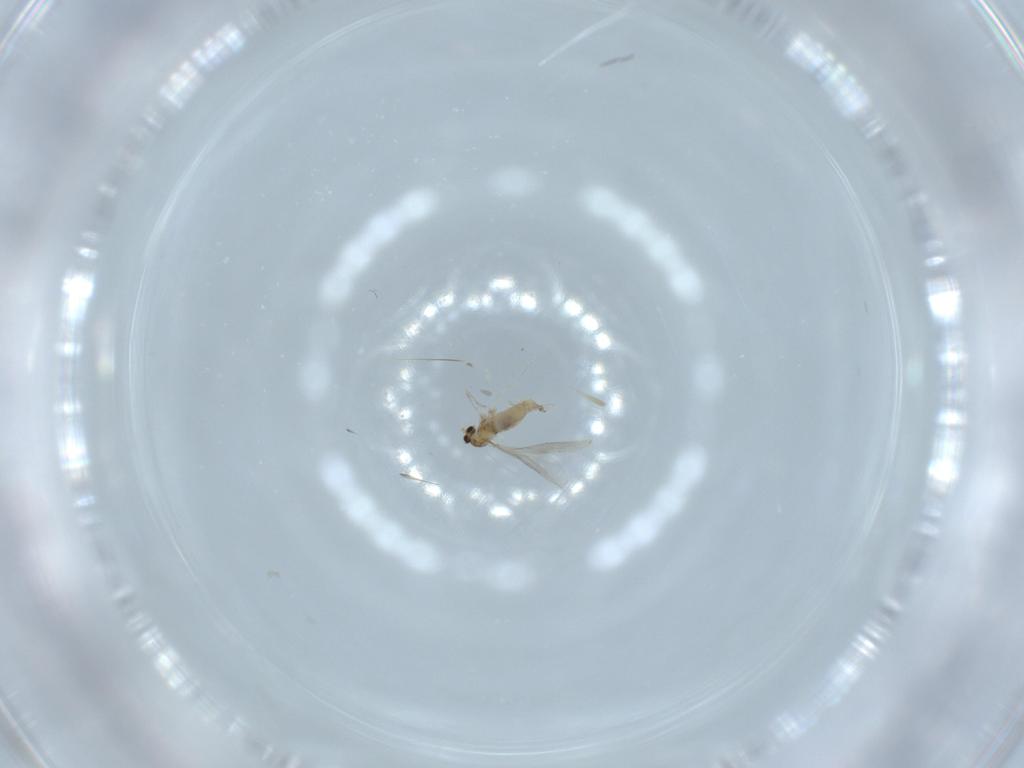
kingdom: Animalia
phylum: Arthropoda
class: Insecta
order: Diptera
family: Cecidomyiidae
